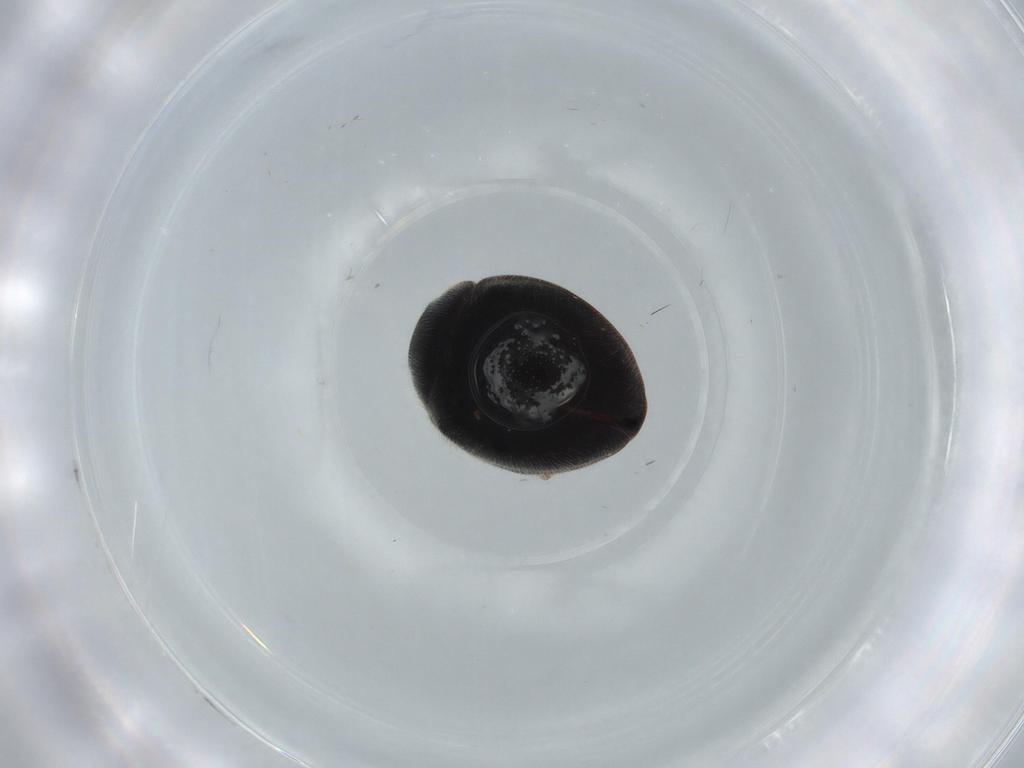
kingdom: Animalia
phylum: Arthropoda
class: Insecta
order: Coleoptera
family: Coccinellidae
